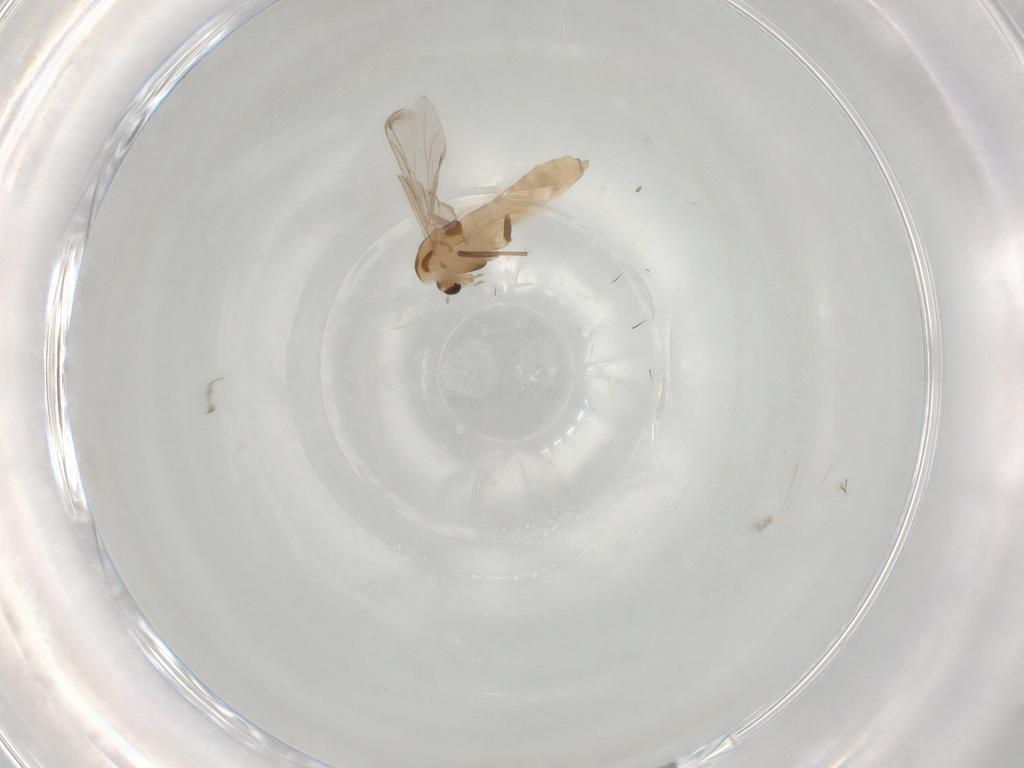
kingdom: Animalia
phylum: Arthropoda
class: Insecta
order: Diptera
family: Chironomidae
